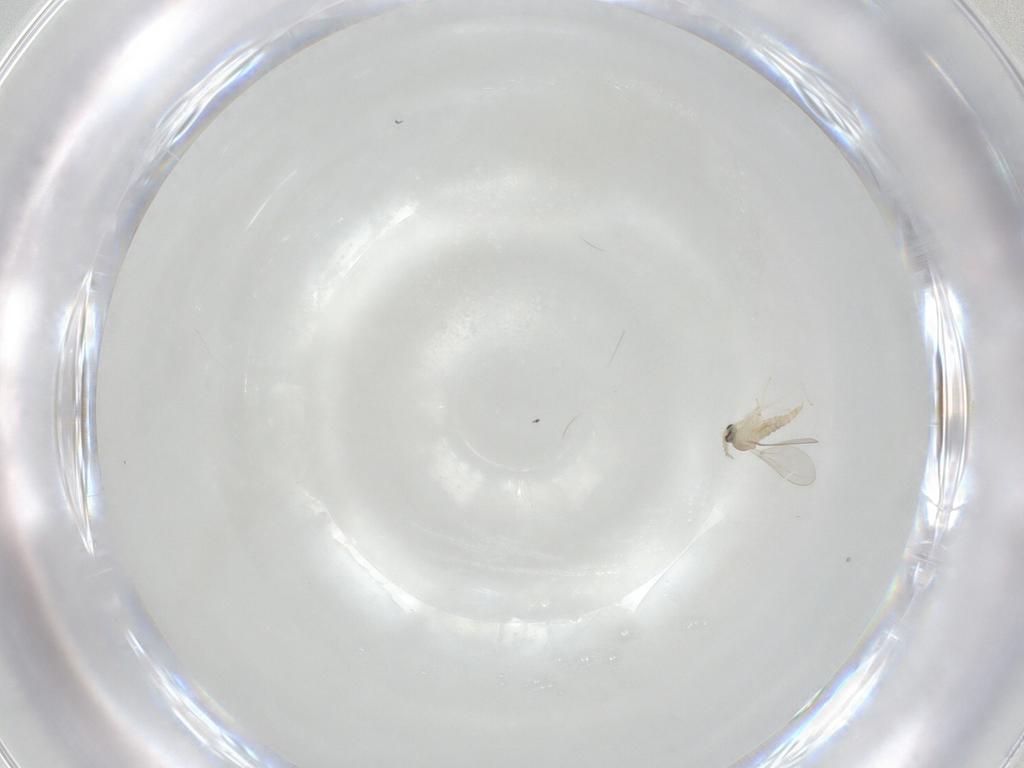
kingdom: Animalia
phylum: Arthropoda
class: Insecta
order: Diptera
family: Cecidomyiidae
